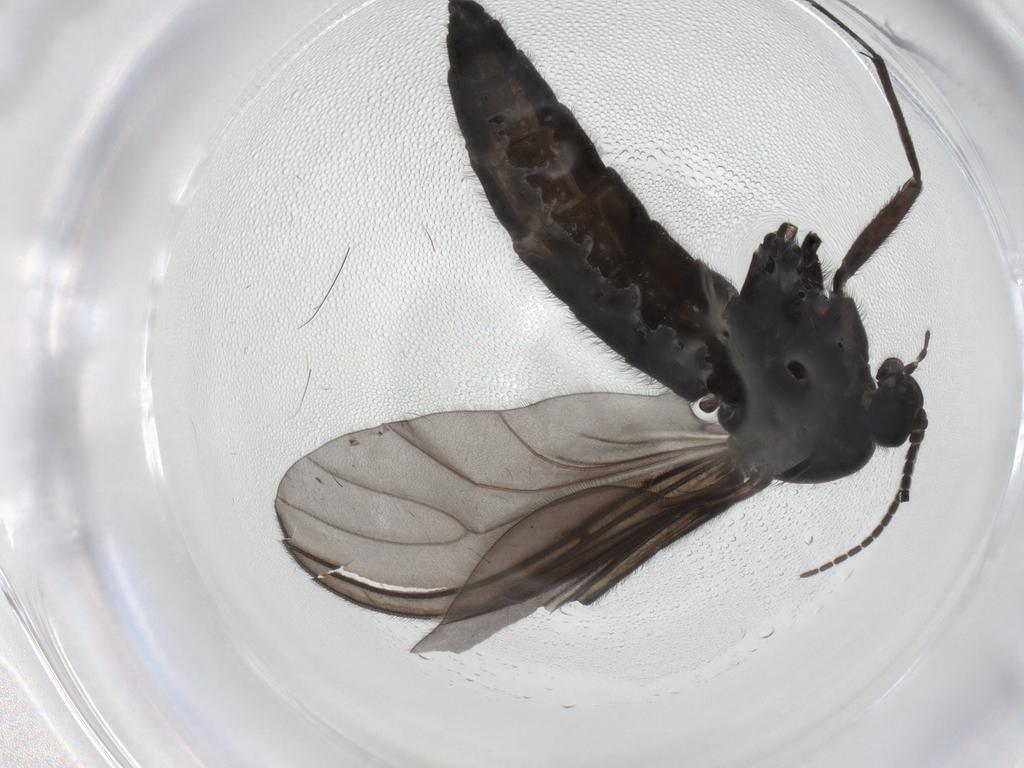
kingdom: Animalia
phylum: Arthropoda
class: Insecta
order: Diptera
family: Sciaridae
